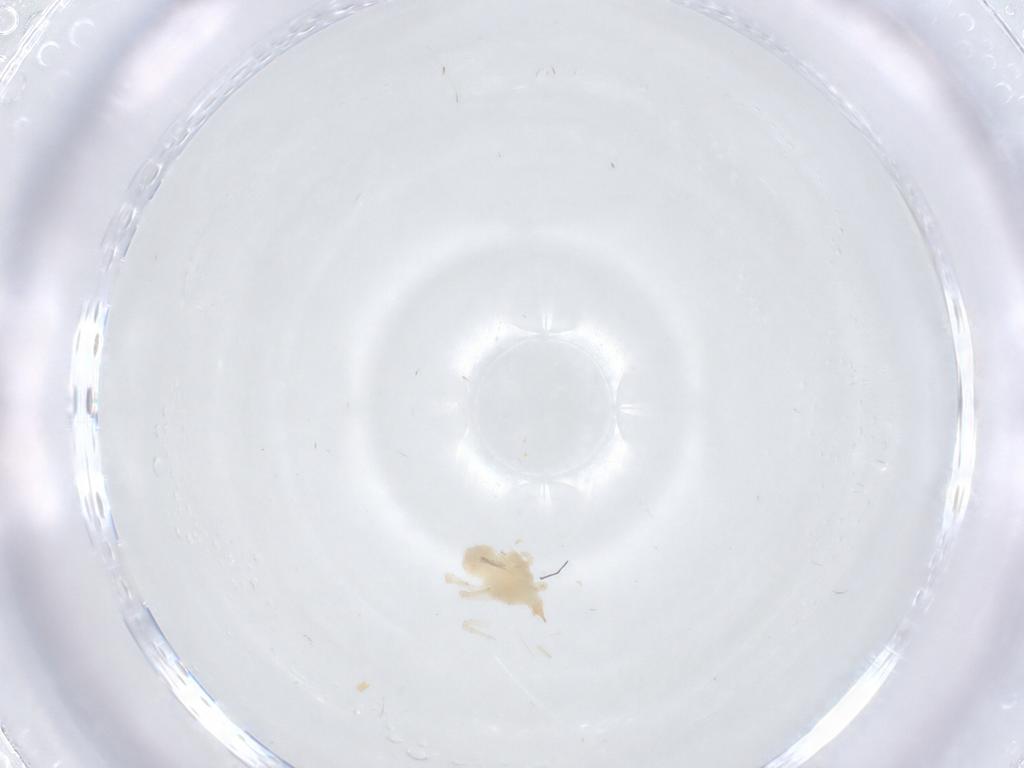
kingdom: Animalia
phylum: Arthropoda
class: Arachnida
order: Trombidiformes
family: Bdellidae
